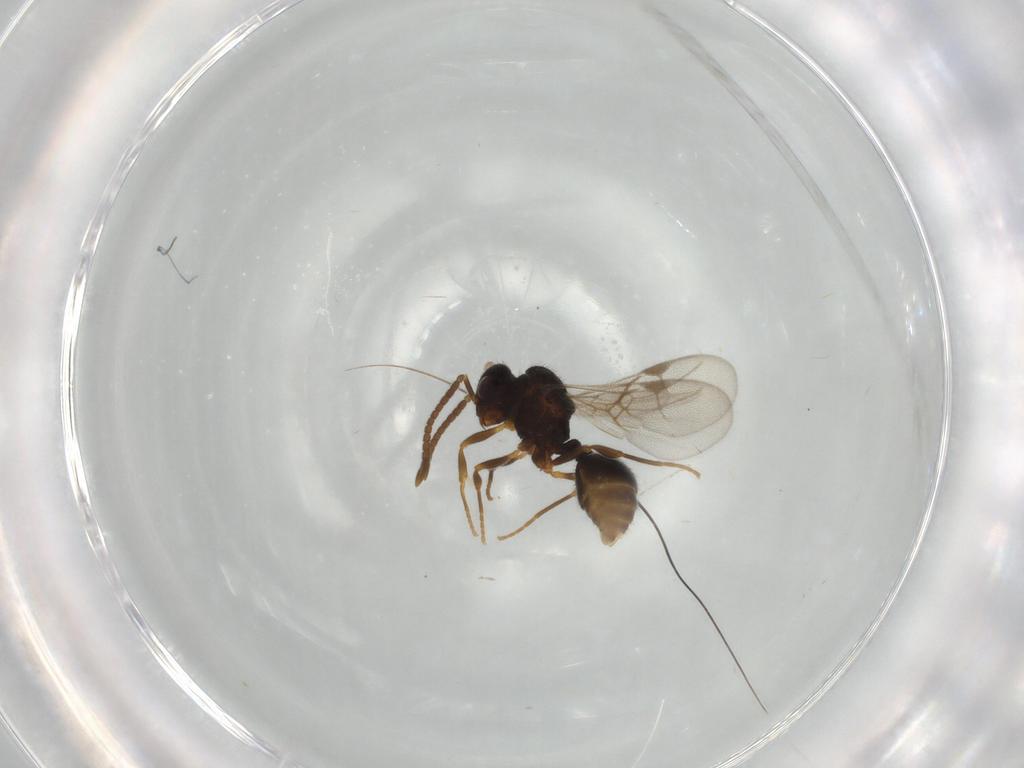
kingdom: Animalia
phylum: Arthropoda
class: Insecta
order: Hymenoptera
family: Formicidae
